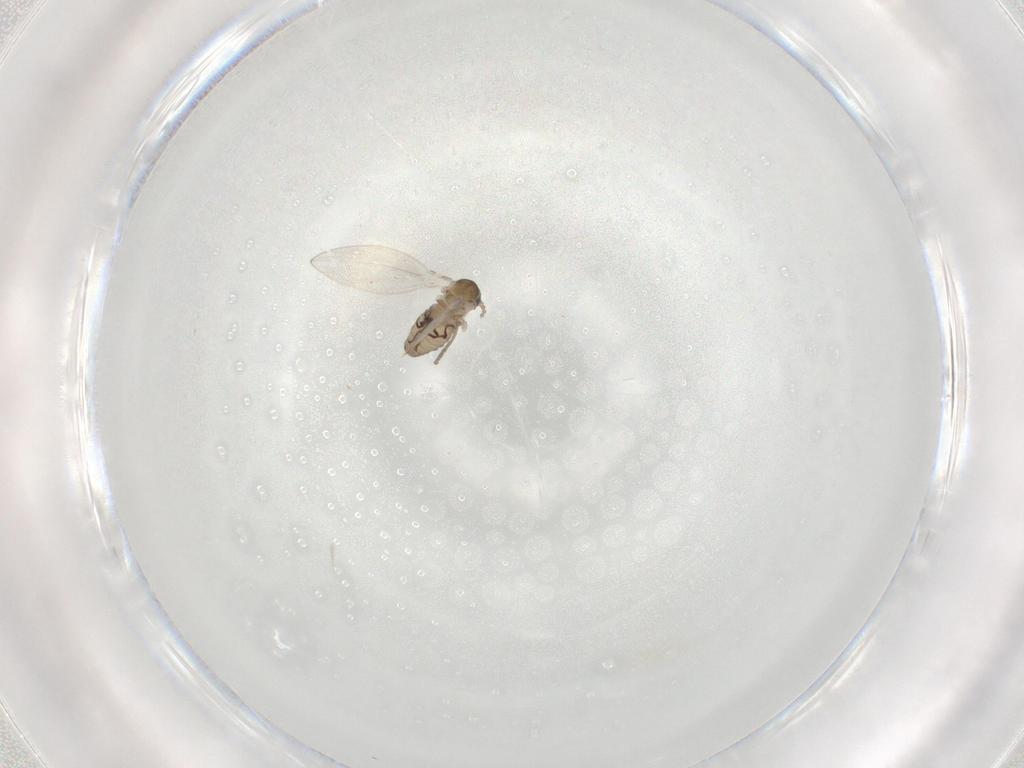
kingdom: Animalia
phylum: Arthropoda
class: Insecta
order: Diptera
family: Psychodidae
